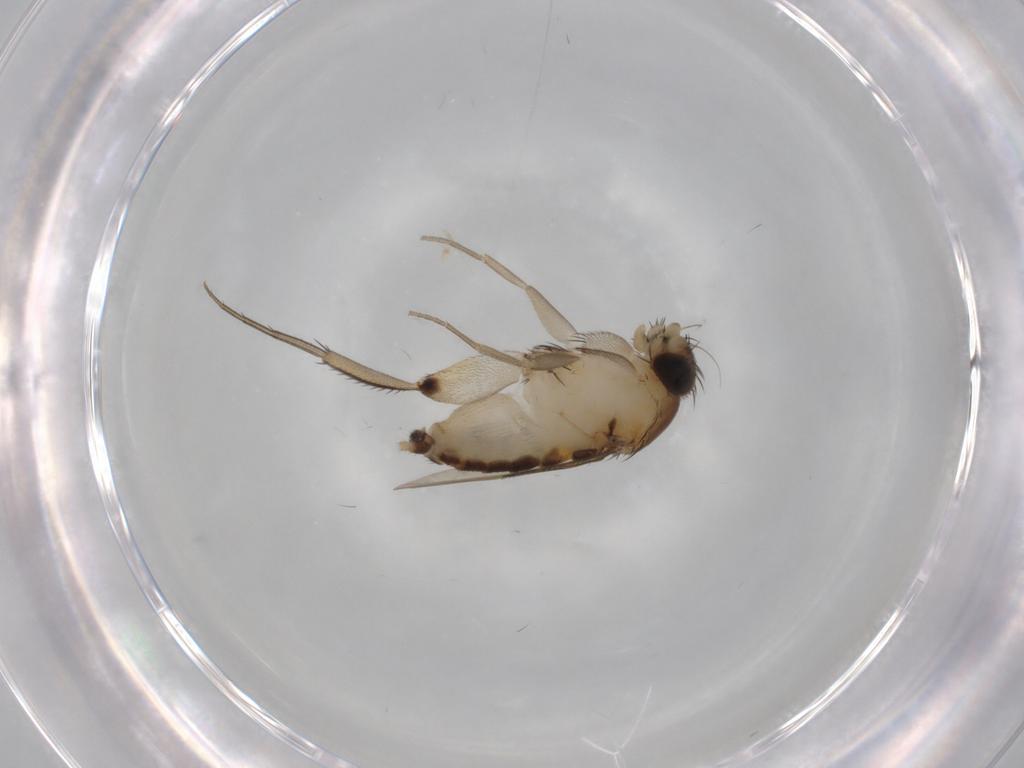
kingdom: Animalia
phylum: Arthropoda
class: Insecta
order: Diptera
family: Phoridae
